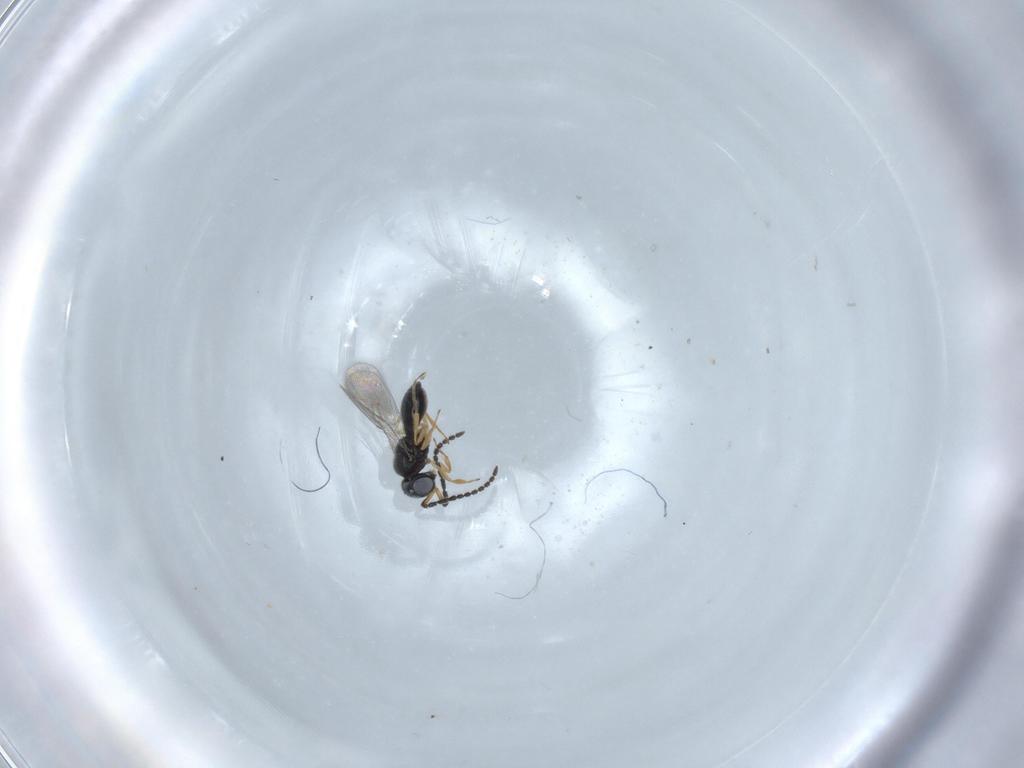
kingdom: Animalia
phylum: Arthropoda
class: Insecta
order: Hymenoptera
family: Scelionidae
